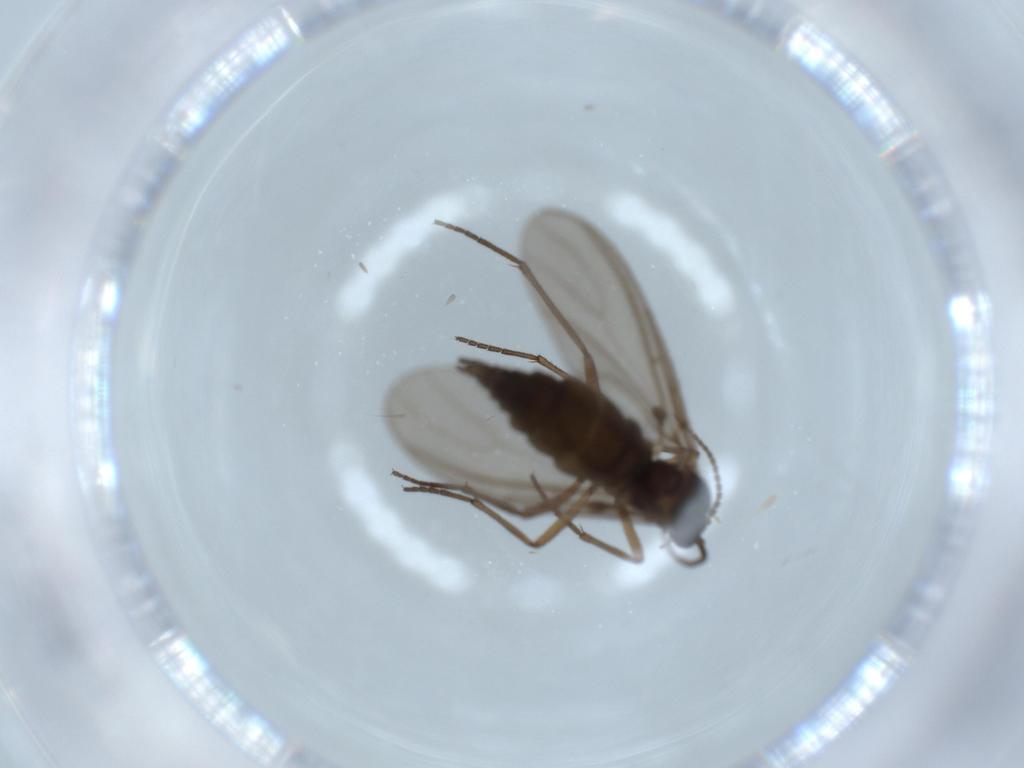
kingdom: Animalia
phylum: Arthropoda
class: Insecta
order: Diptera
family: Sciaridae
